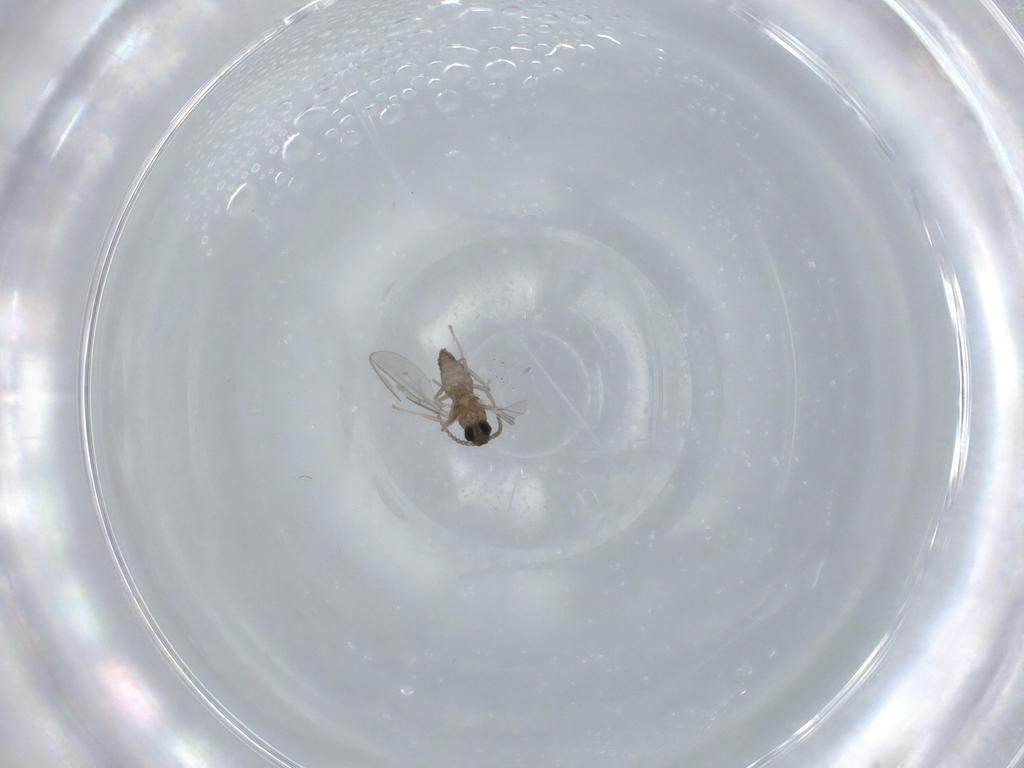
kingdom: Animalia
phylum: Arthropoda
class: Insecta
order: Diptera
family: Cecidomyiidae
